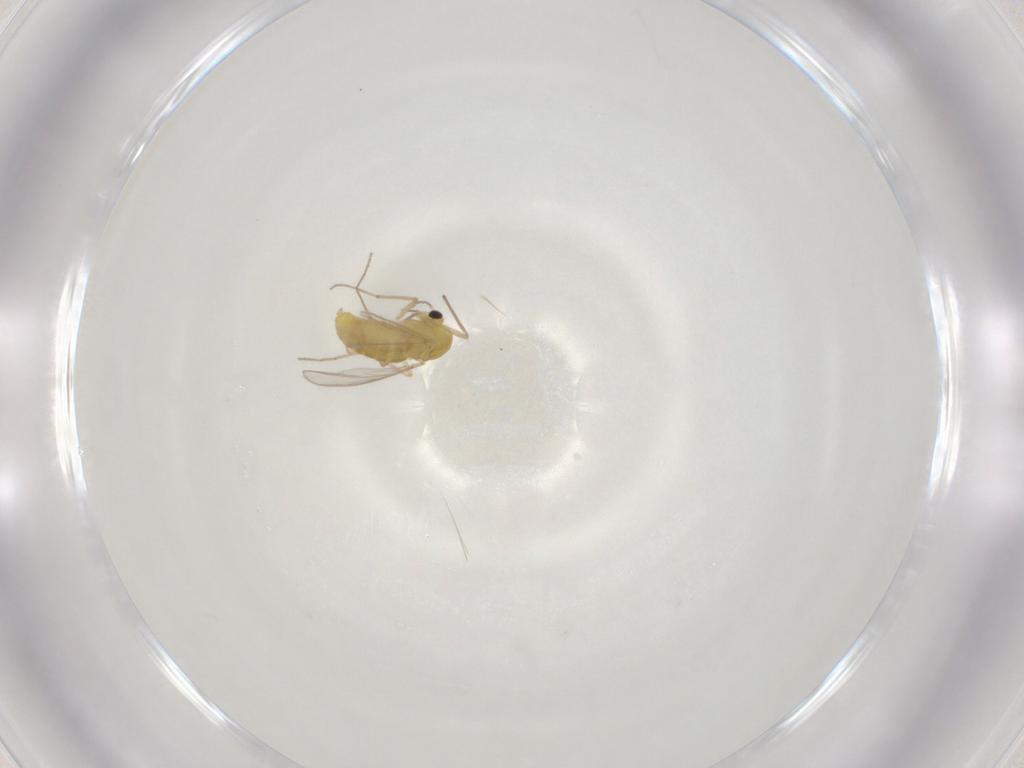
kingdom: Animalia
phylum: Arthropoda
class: Insecta
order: Diptera
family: Chironomidae
